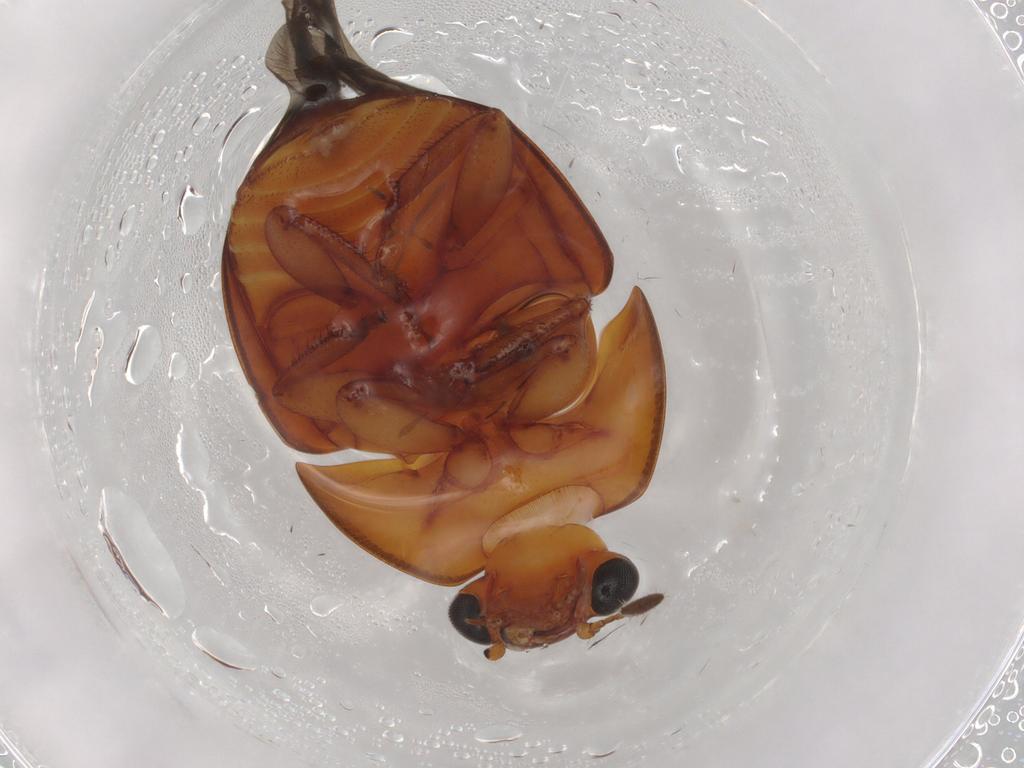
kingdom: Animalia
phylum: Arthropoda
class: Insecta
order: Coleoptera
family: Nitidulidae
